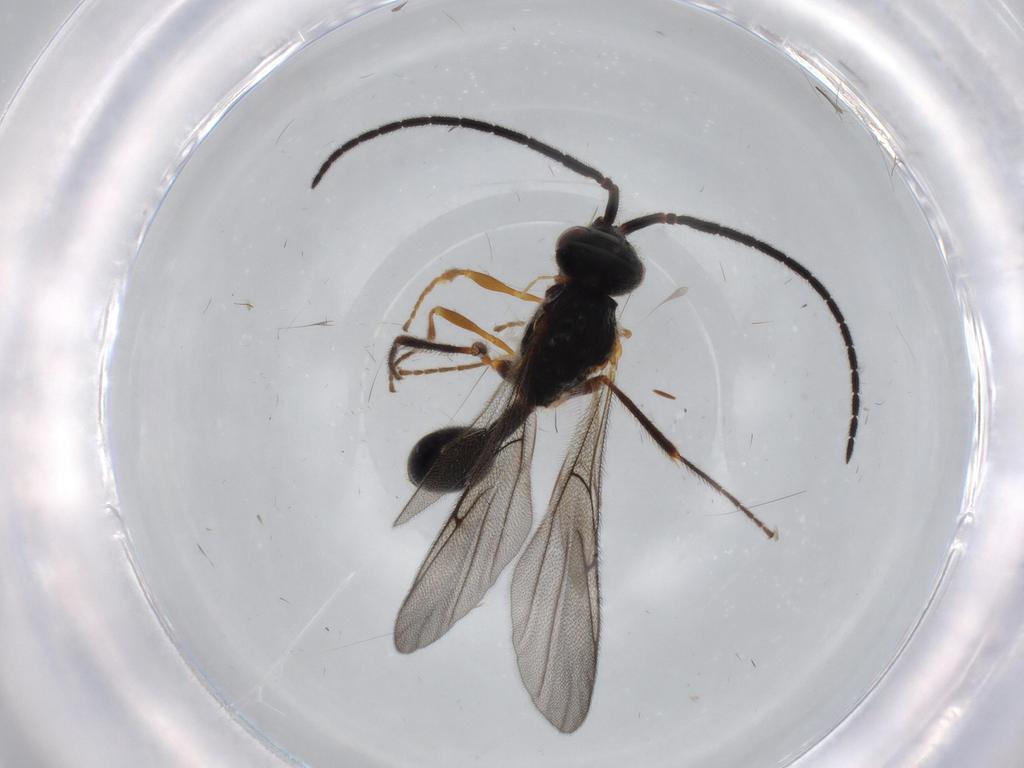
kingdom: Animalia
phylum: Arthropoda
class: Insecta
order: Hymenoptera
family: Diapriidae
